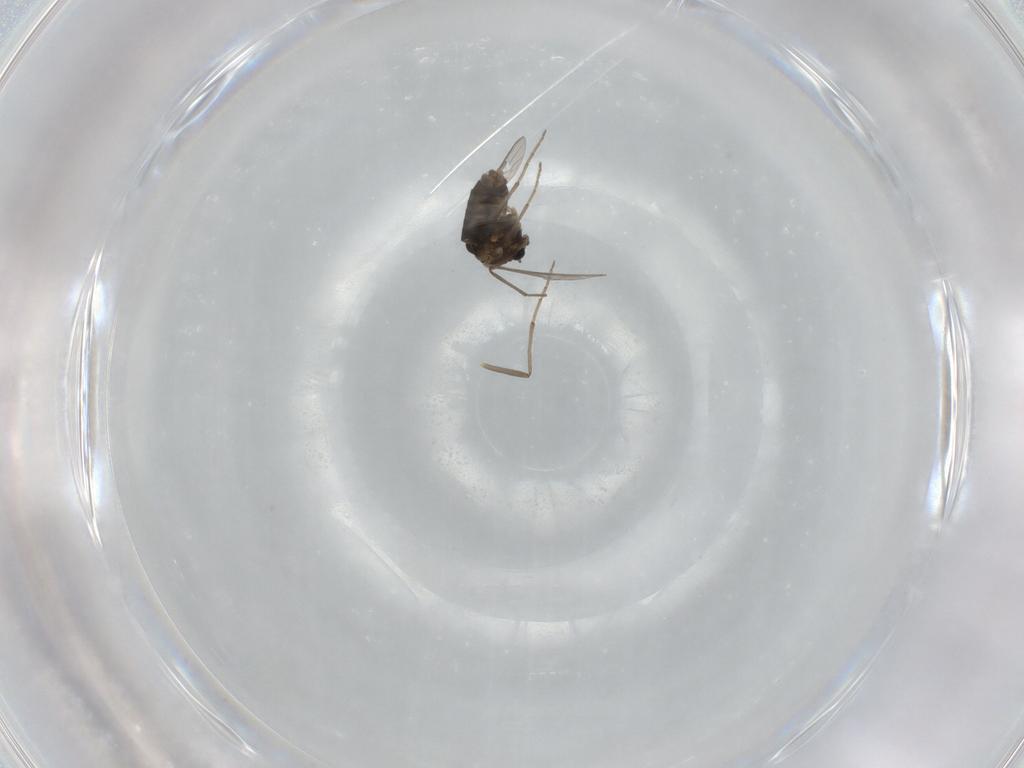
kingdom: Animalia
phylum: Arthropoda
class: Insecta
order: Diptera
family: Chironomidae
